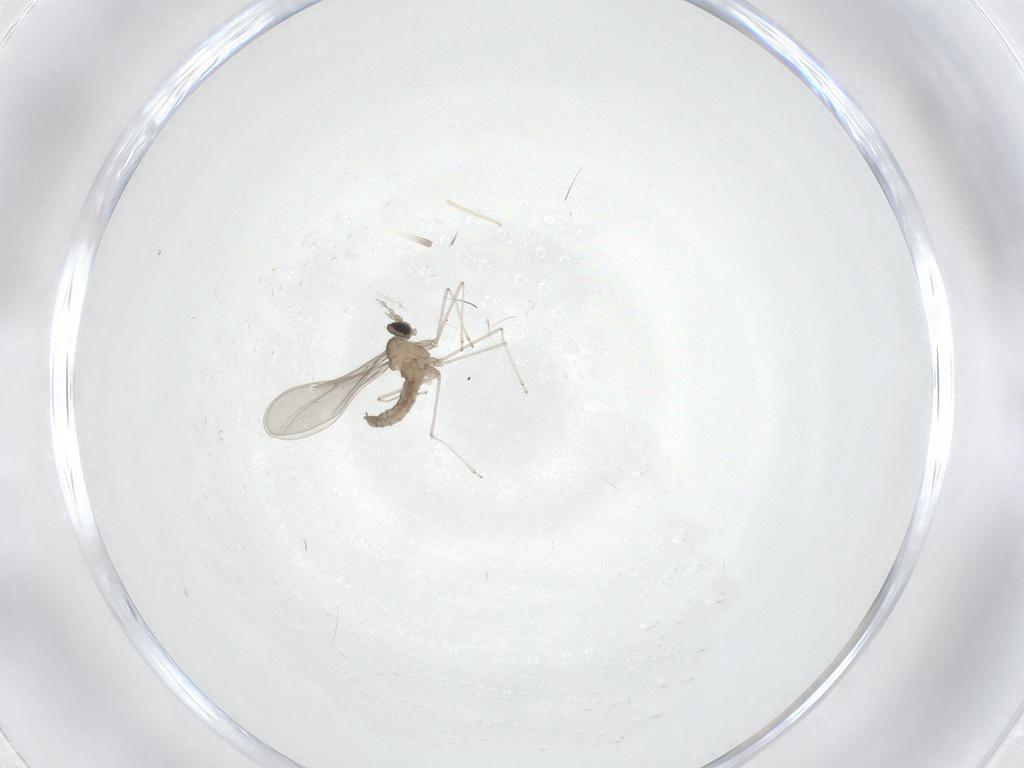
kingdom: Animalia
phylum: Arthropoda
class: Insecta
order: Diptera
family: Cecidomyiidae
